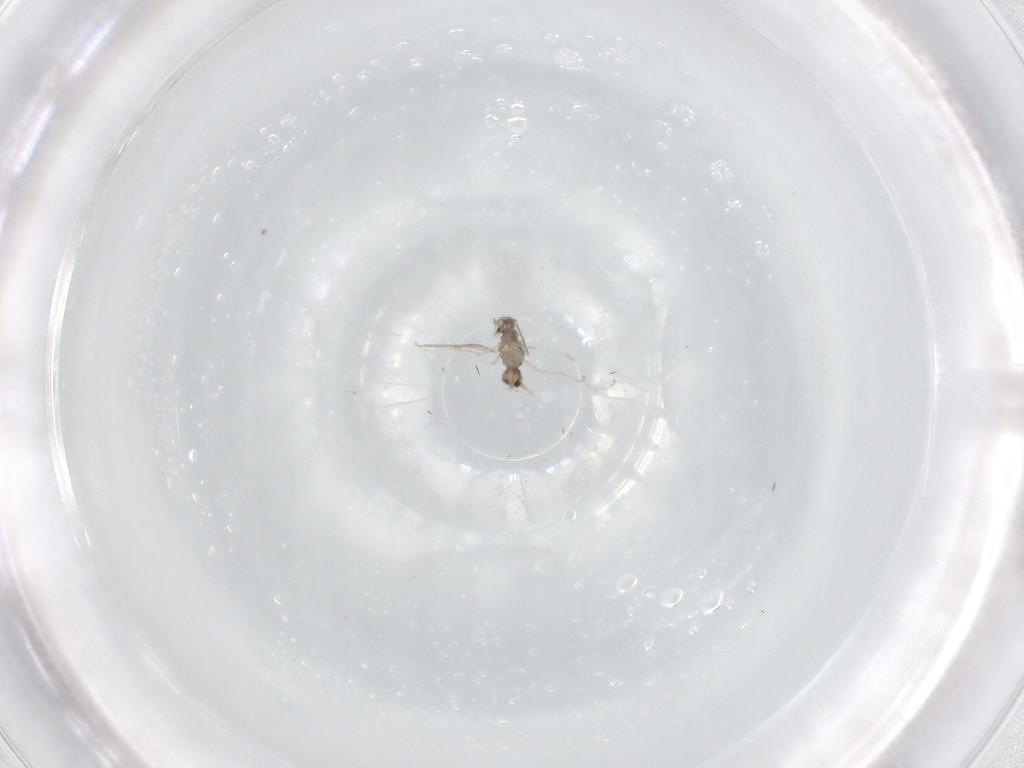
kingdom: Animalia
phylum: Arthropoda
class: Insecta
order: Diptera
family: Cecidomyiidae
